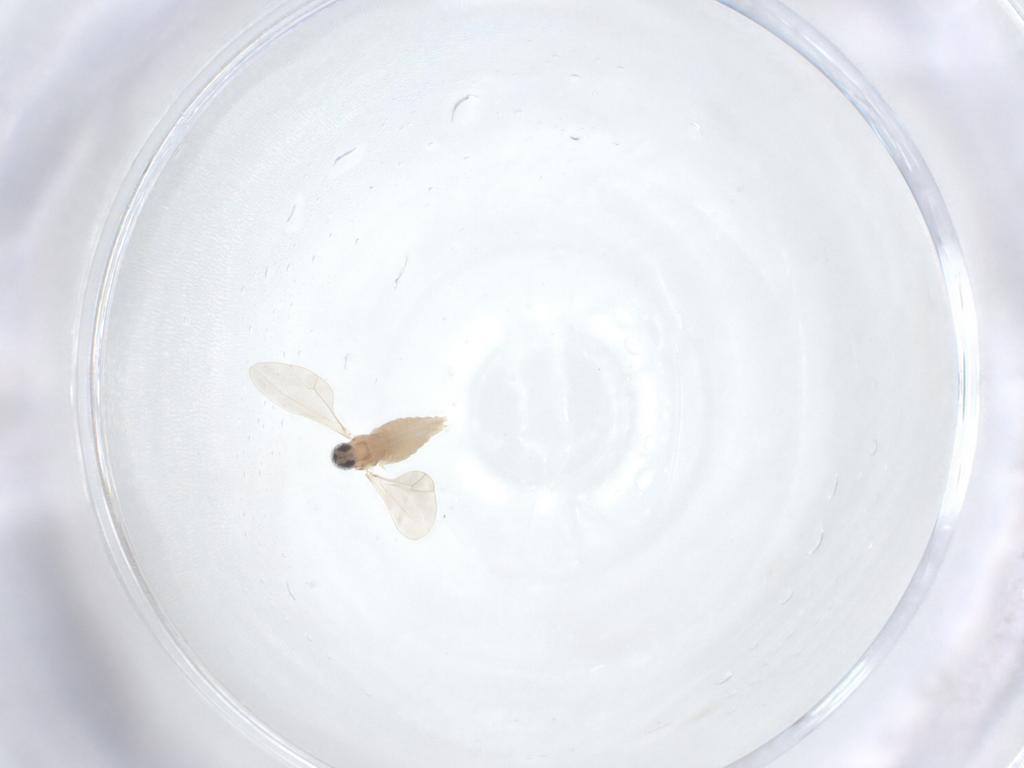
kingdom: Animalia
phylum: Arthropoda
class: Insecta
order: Diptera
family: Cecidomyiidae
